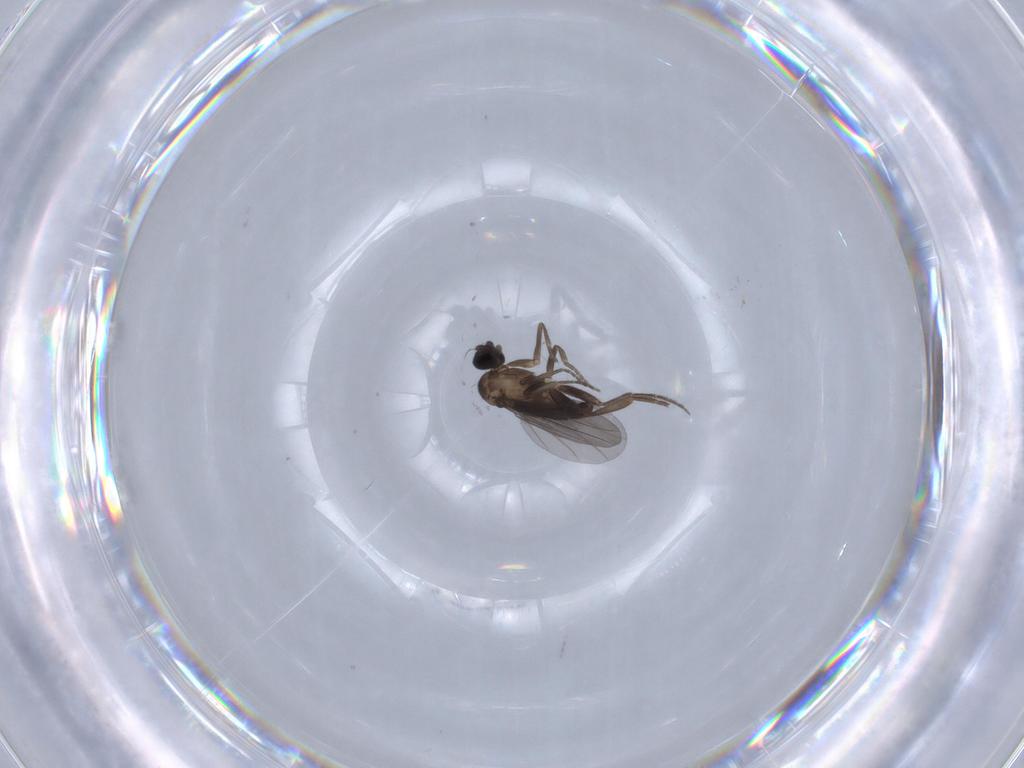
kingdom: Animalia
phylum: Arthropoda
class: Insecta
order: Diptera
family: Phoridae
